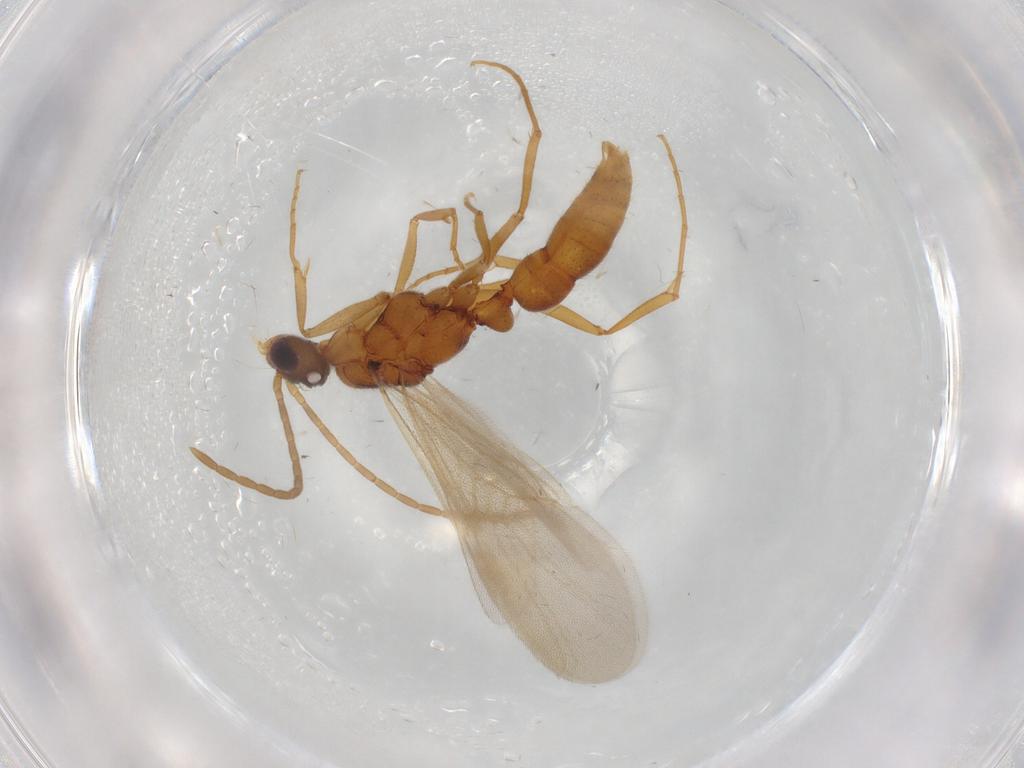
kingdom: Animalia
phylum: Arthropoda
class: Insecta
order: Hymenoptera
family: Formicidae
